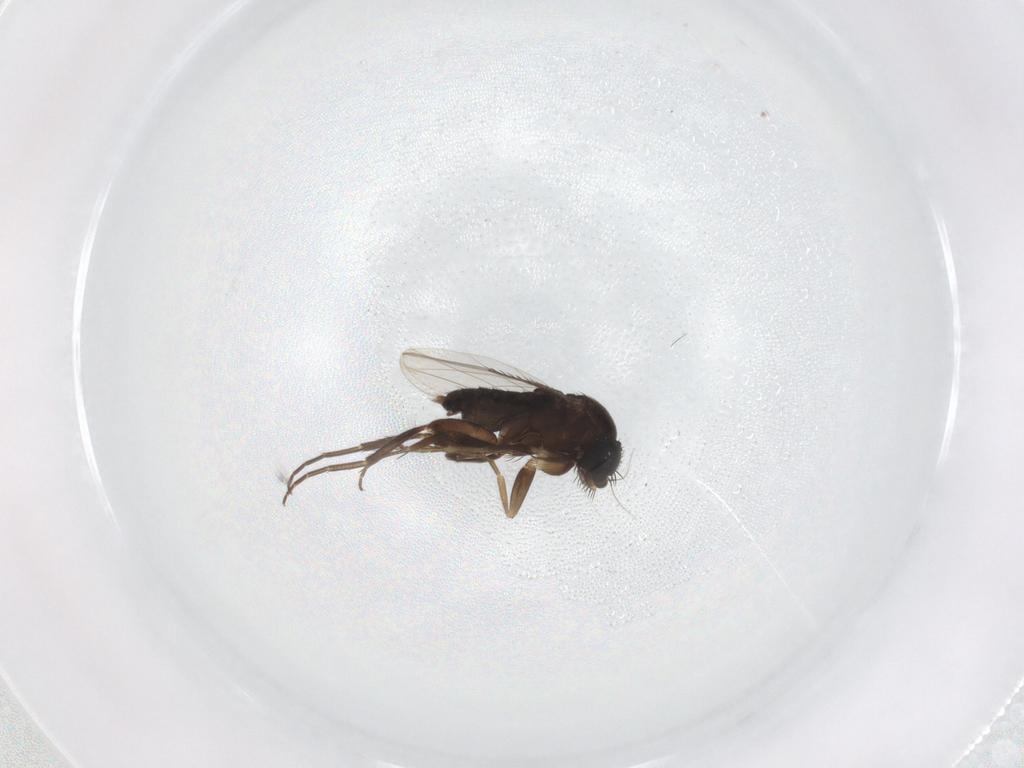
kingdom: Animalia
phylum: Arthropoda
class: Insecta
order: Diptera
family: Phoridae
